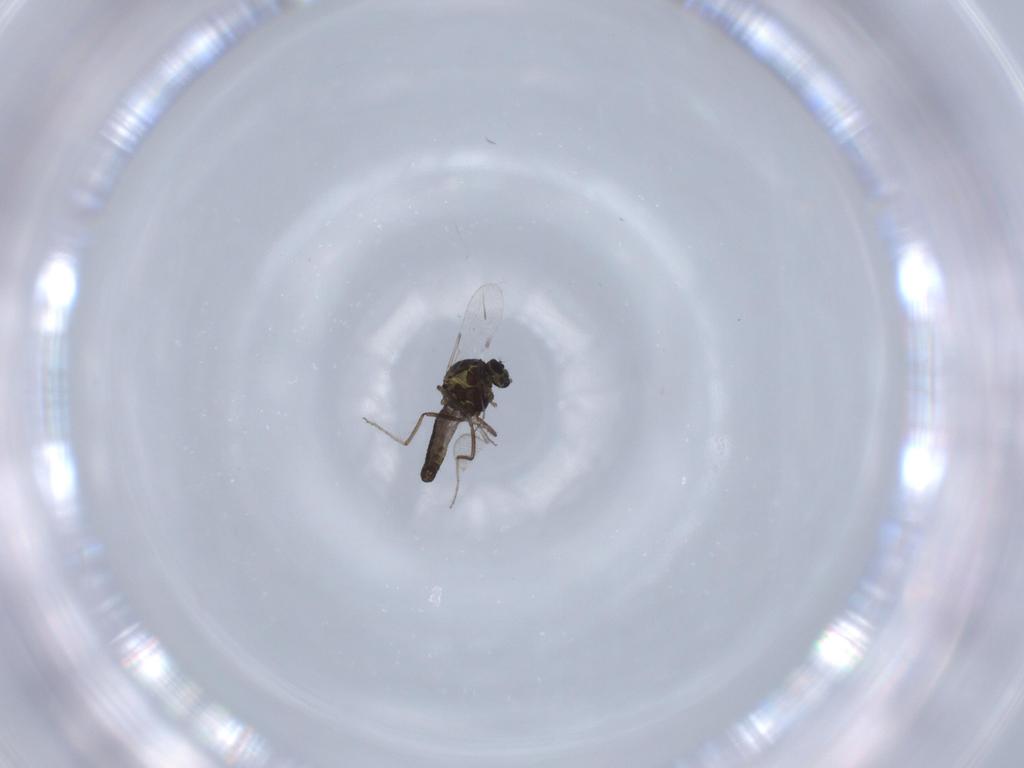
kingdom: Animalia
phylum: Arthropoda
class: Insecta
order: Diptera
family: Ceratopogonidae
